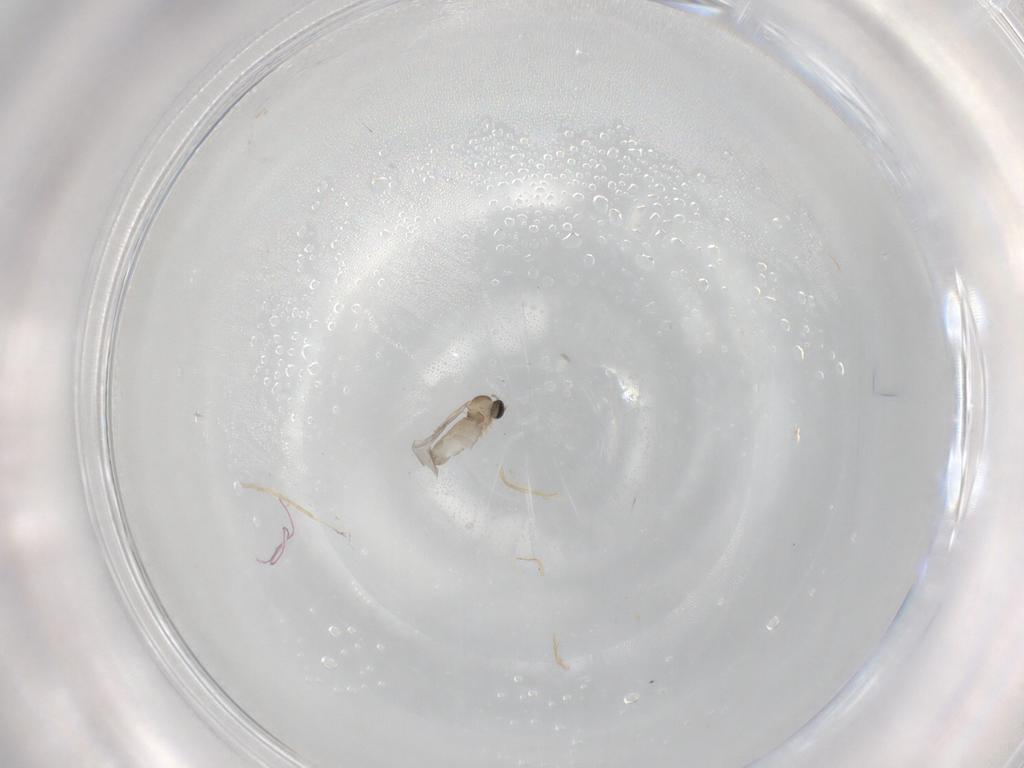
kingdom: Animalia
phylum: Arthropoda
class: Insecta
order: Diptera
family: Cecidomyiidae
